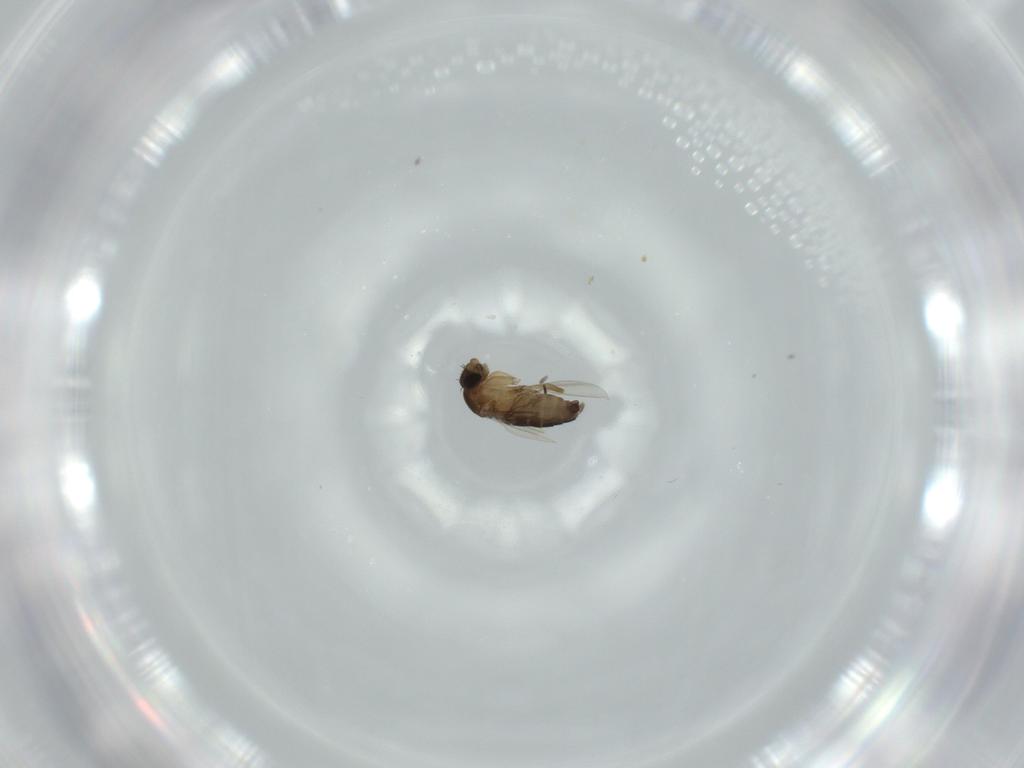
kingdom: Animalia
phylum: Arthropoda
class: Insecta
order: Diptera
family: Phoridae
